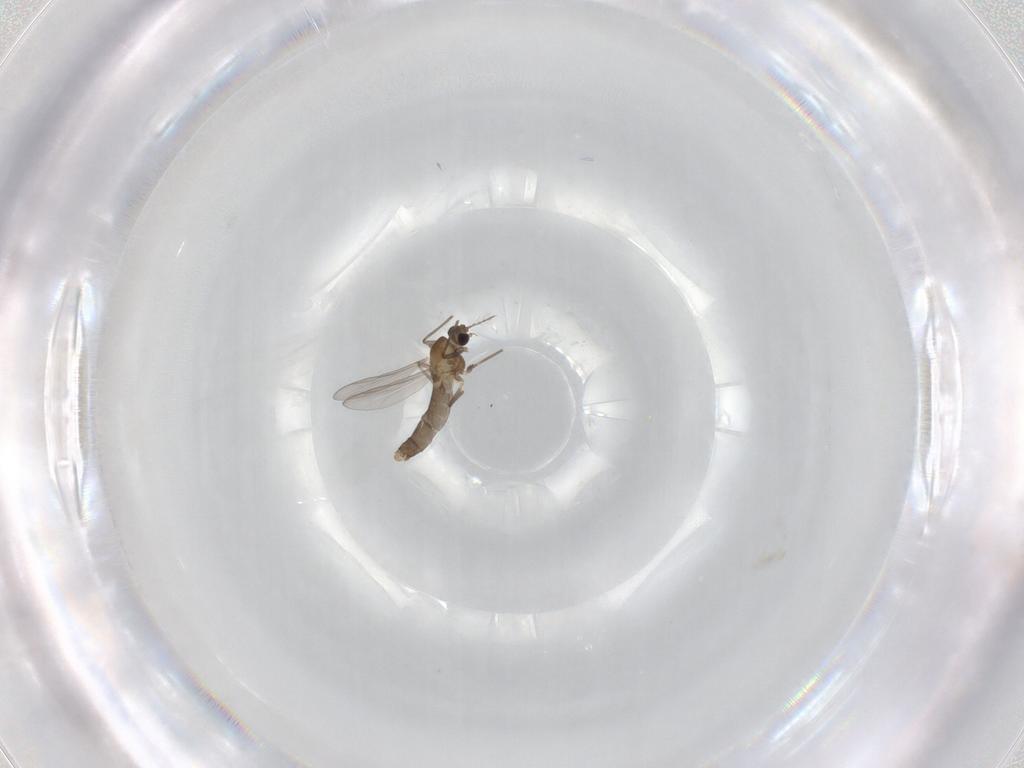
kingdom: Animalia
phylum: Arthropoda
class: Insecta
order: Diptera
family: Chironomidae
